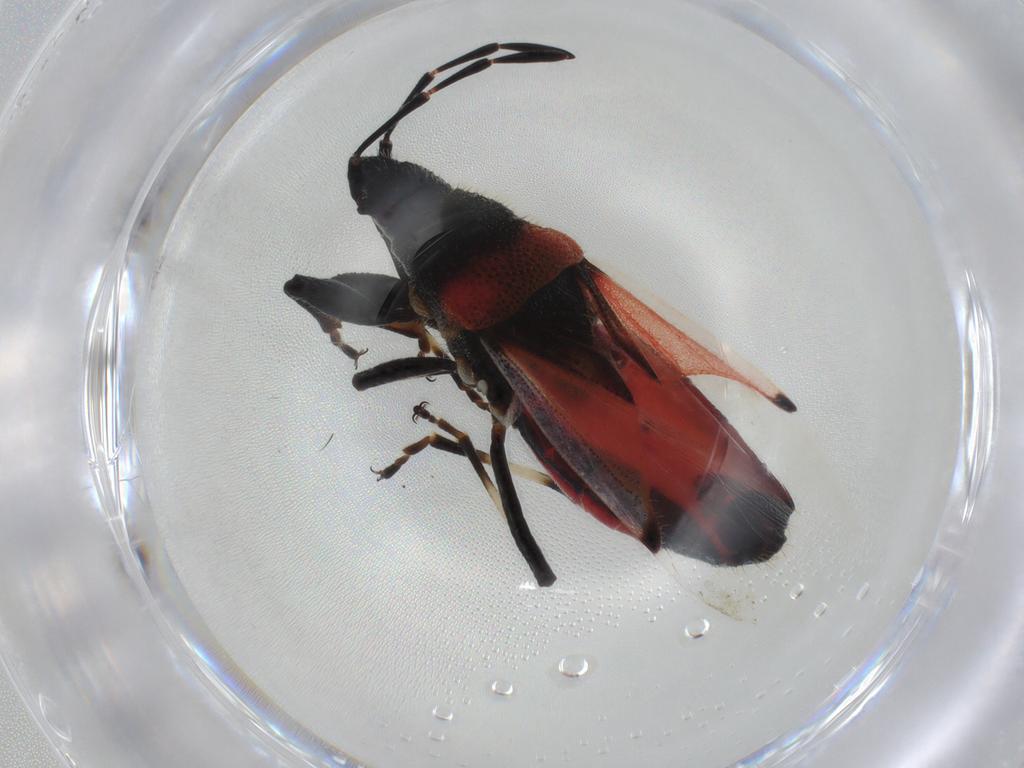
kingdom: Animalia
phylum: Arthropoda
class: Insecta
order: Hemiptera
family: Oxycarenidae
